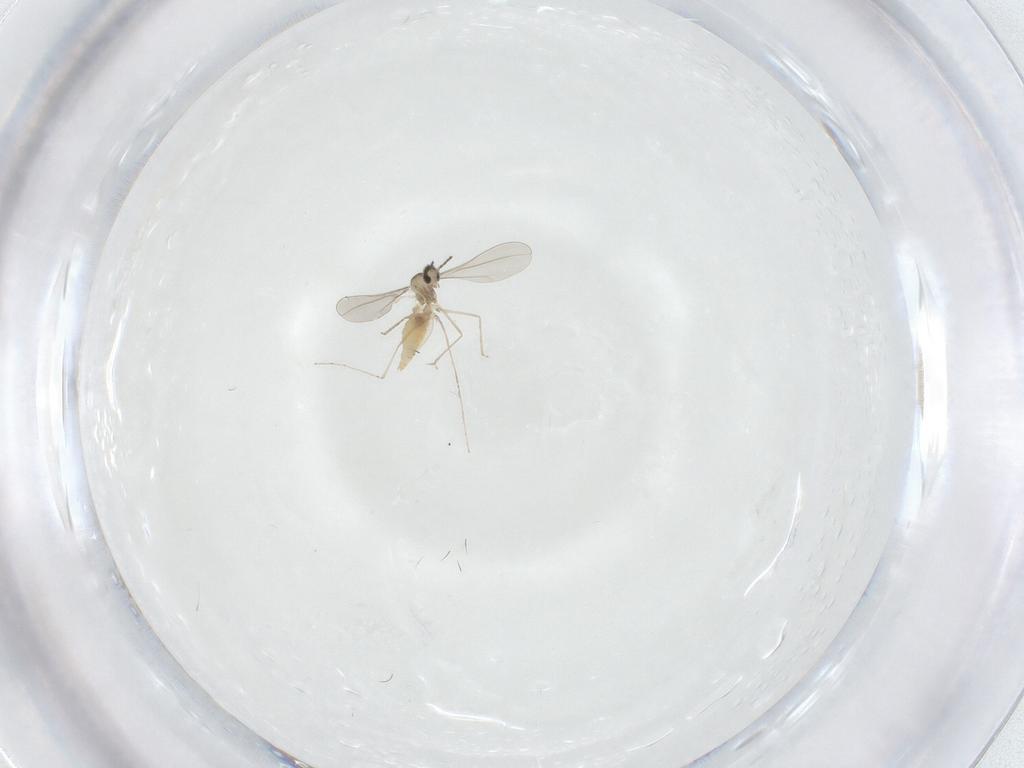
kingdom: Animalia
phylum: Arthropoda
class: Insecta
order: Diptera
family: Cecidomyiidae
